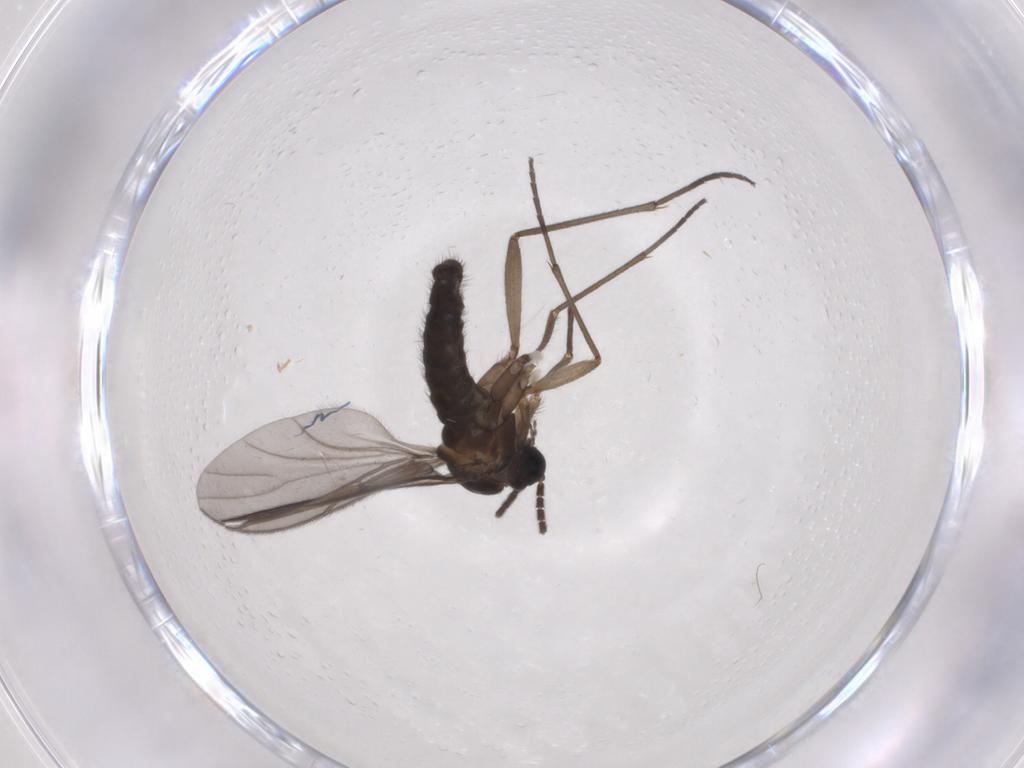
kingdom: Animalia
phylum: Arthropoda
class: Insecta
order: Diptera
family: Sciaridae
